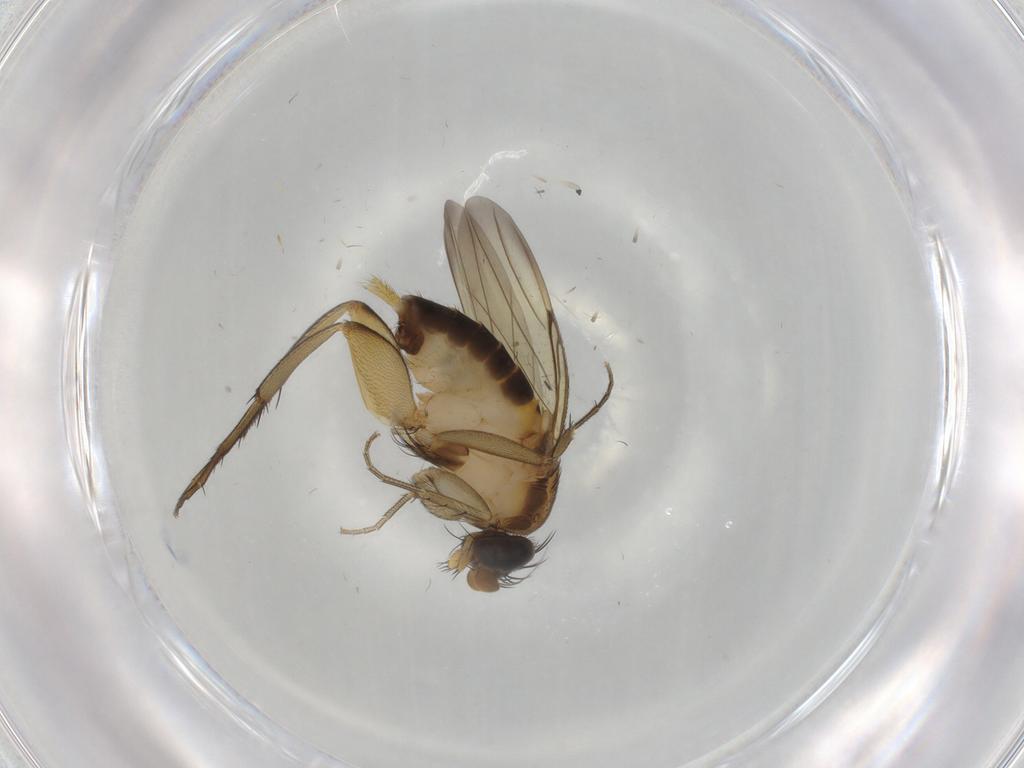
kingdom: Animalia
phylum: Arthropoda
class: Insecta
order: Diptera
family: Phoridae
